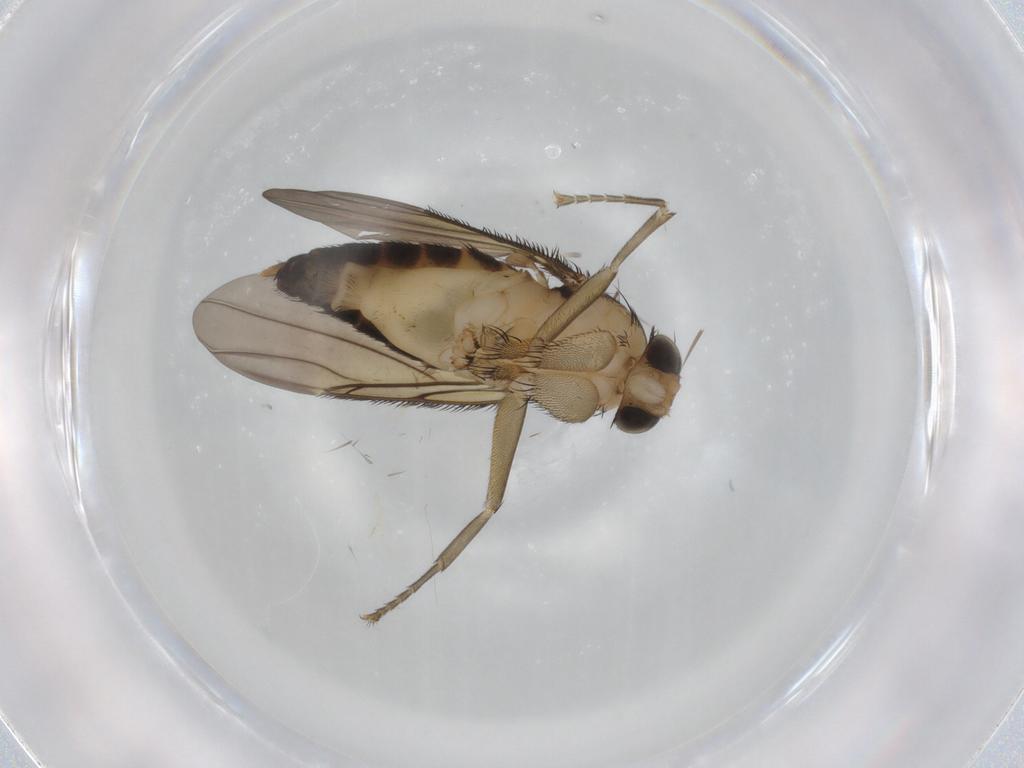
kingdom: Animalia
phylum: Arthropoda
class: Insecta
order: Diptera
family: Phoridae
